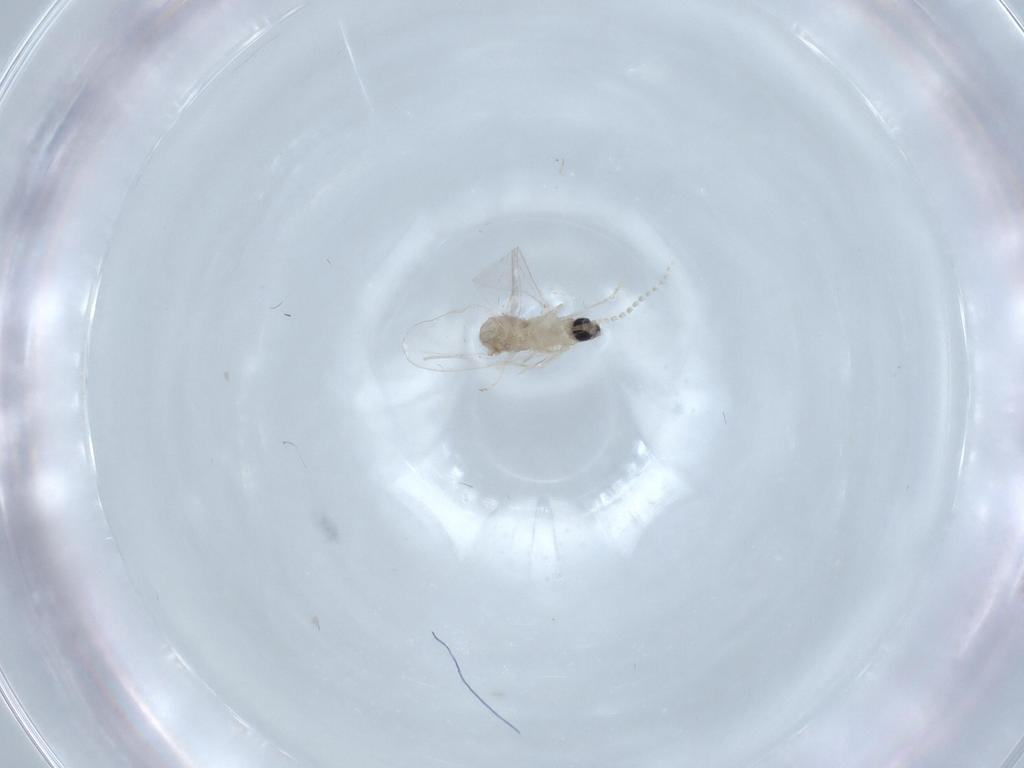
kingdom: Animalia
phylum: Arthropoda
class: Insecta
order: Diptera
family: Cecidomyiidae
